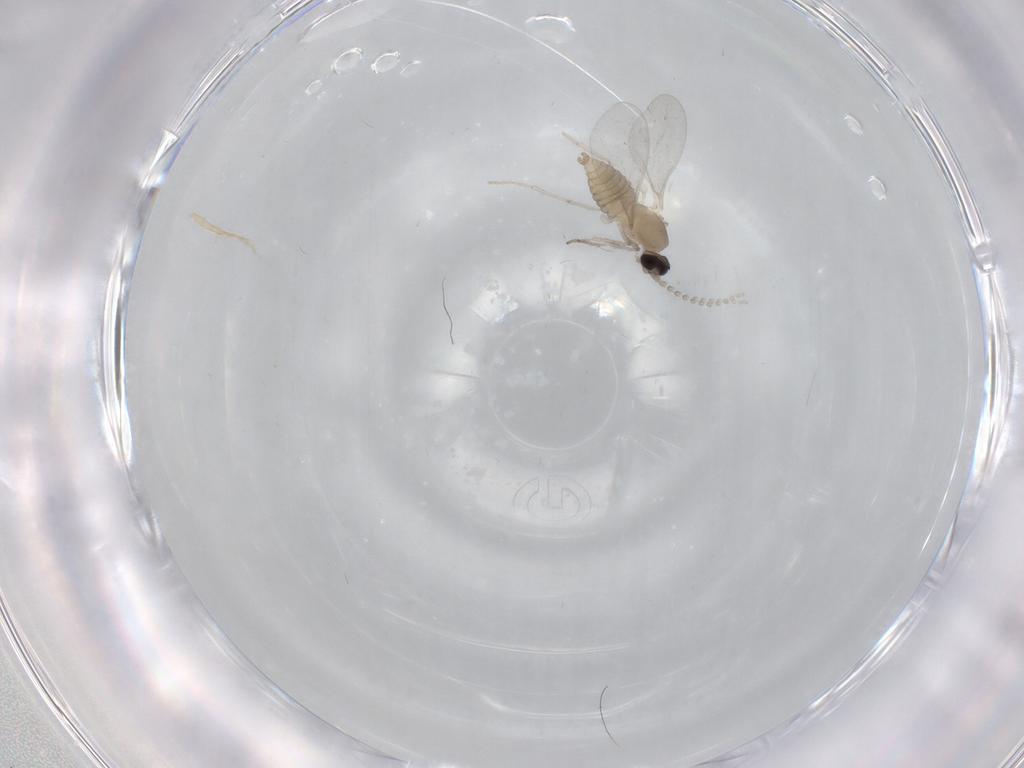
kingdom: Animalia
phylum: Arthropoda
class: Insecta
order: Diptera
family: Cecidomyiidae
